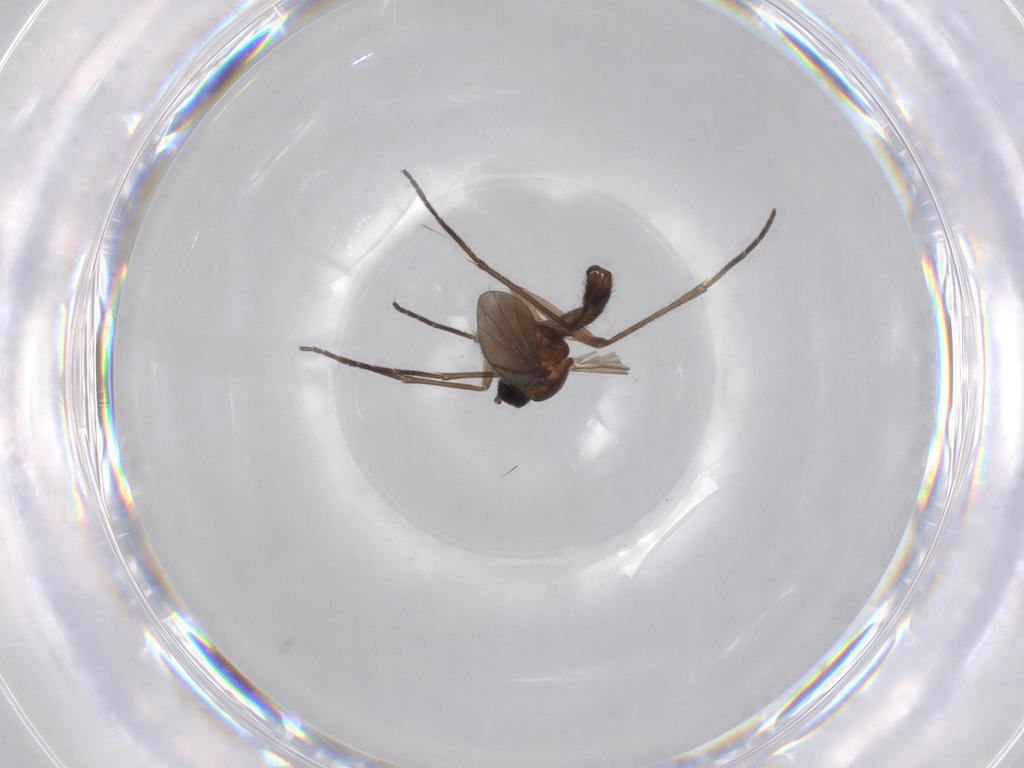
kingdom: Animalia
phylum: Arthropoda
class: Insecta
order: Diptera
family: Sciaridae
